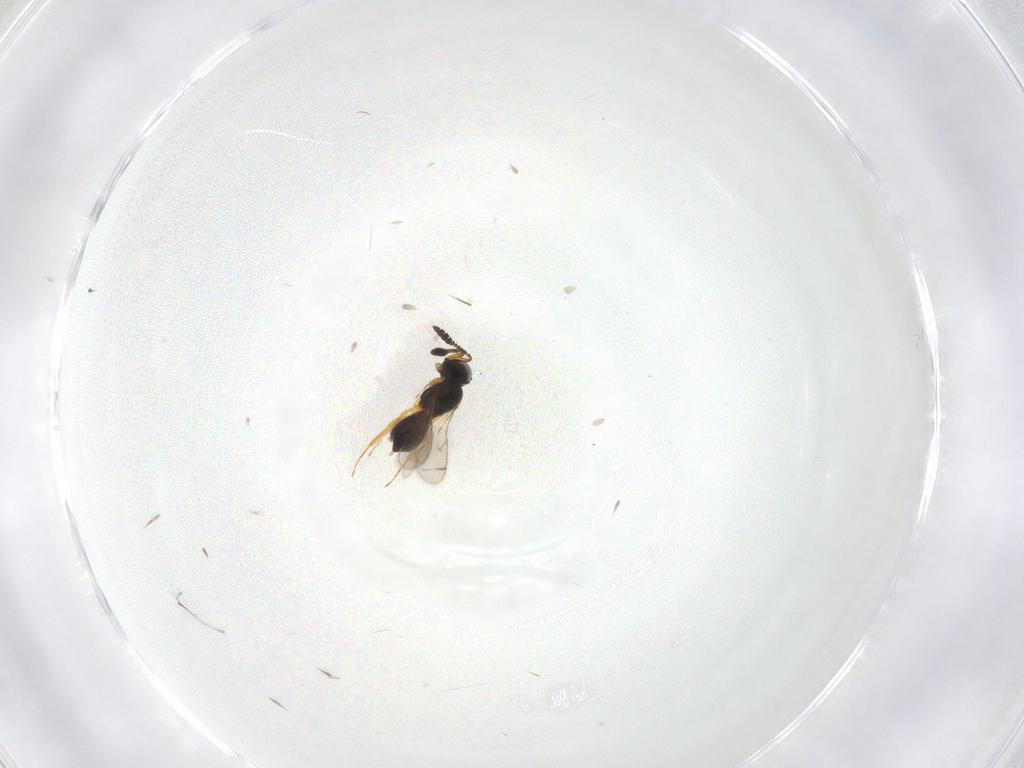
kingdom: Animalia
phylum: Arthropoda
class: Insecta
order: Hymenoptera
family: Scelionidae
